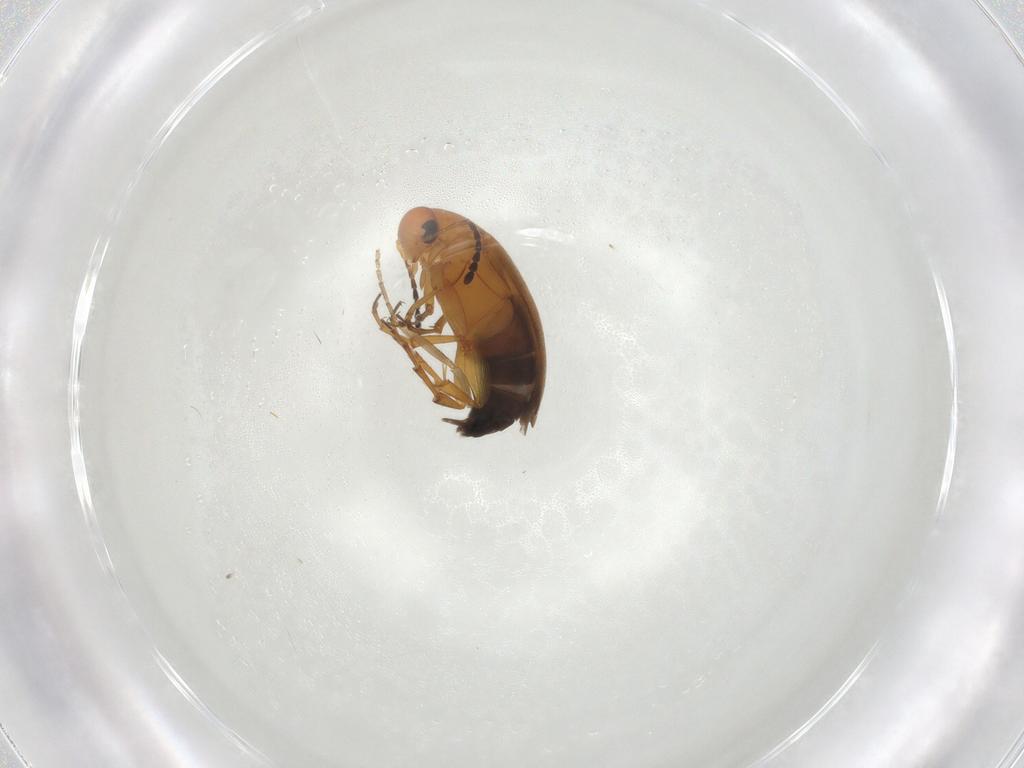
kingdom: Animalia
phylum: Arthropoda
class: Insecta
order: Coleoptera
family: Scraptiidae
